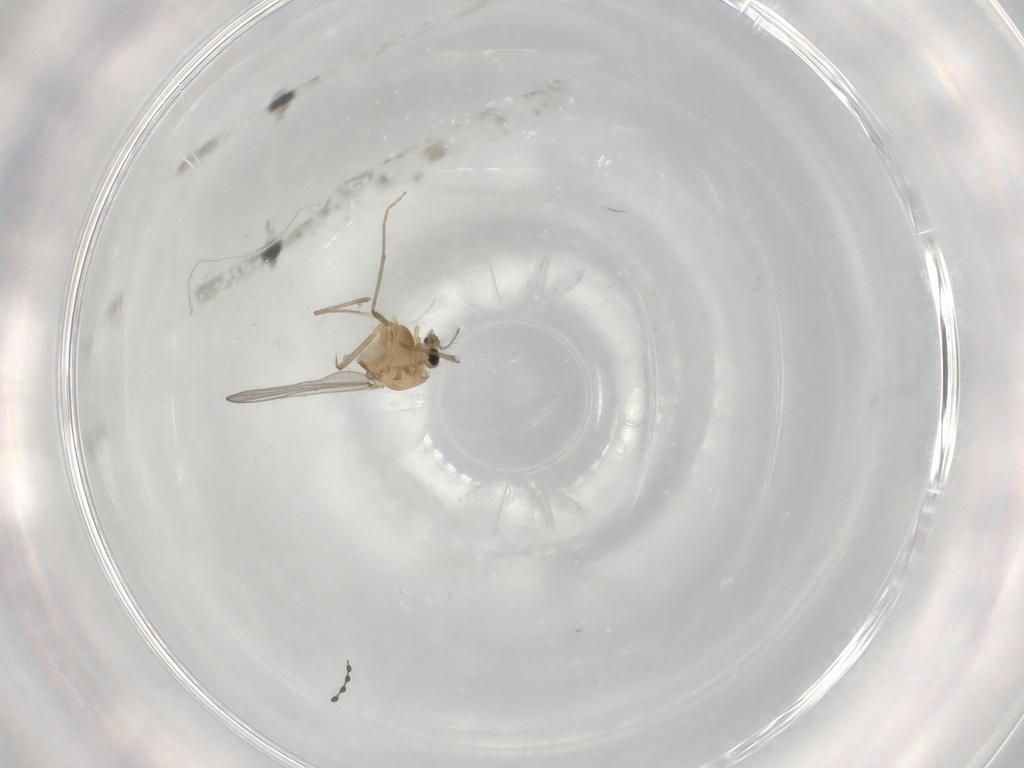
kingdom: Animalia
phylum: Arthropoda
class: Insecta
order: Diptera
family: Chironomidae
